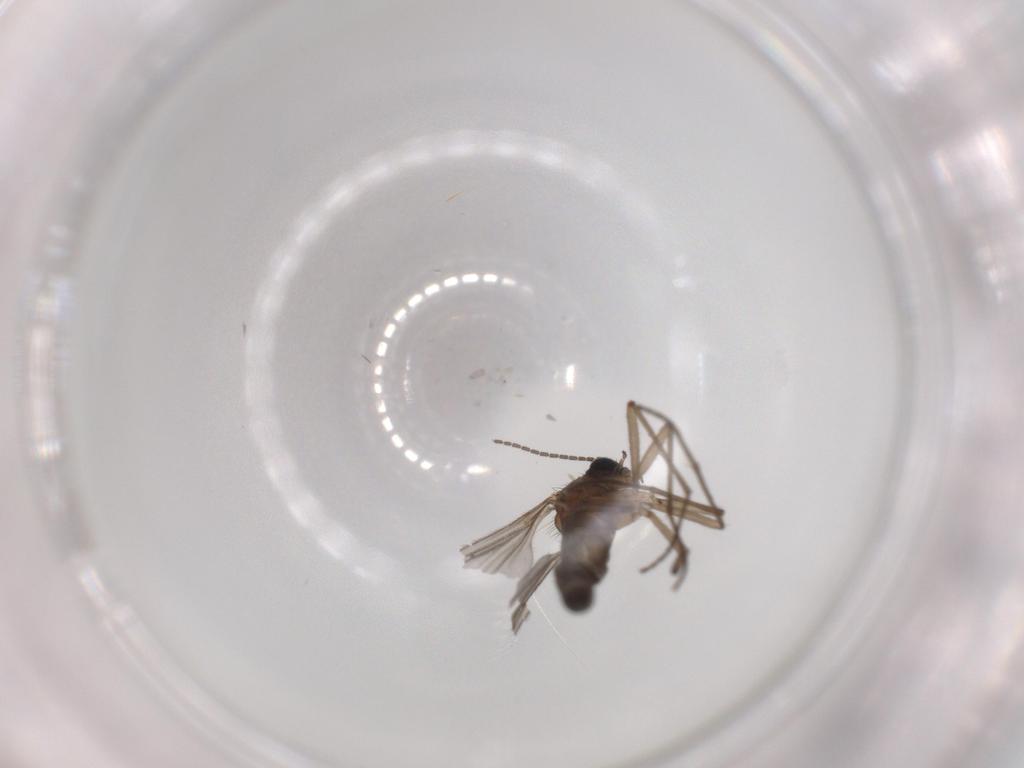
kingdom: Animalia
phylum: Arthropoda
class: Insecta
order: Diptera
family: Sciaridae
